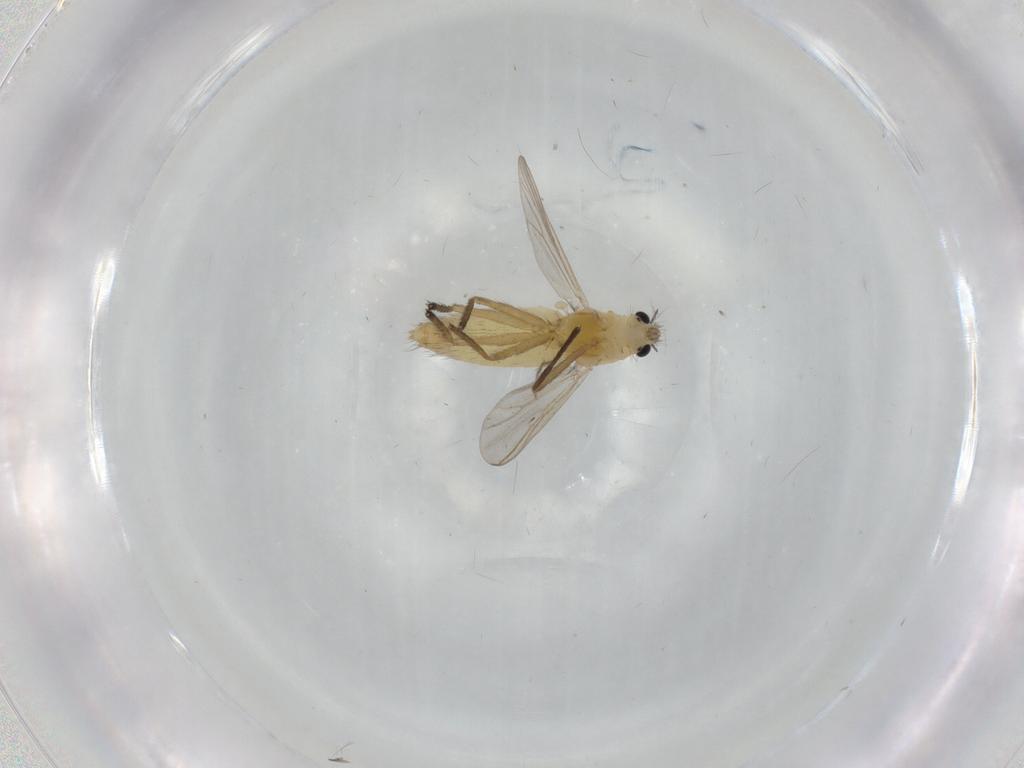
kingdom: Animalia
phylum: Arthropoda
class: Insecta
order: Diptera
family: Chironomidae
